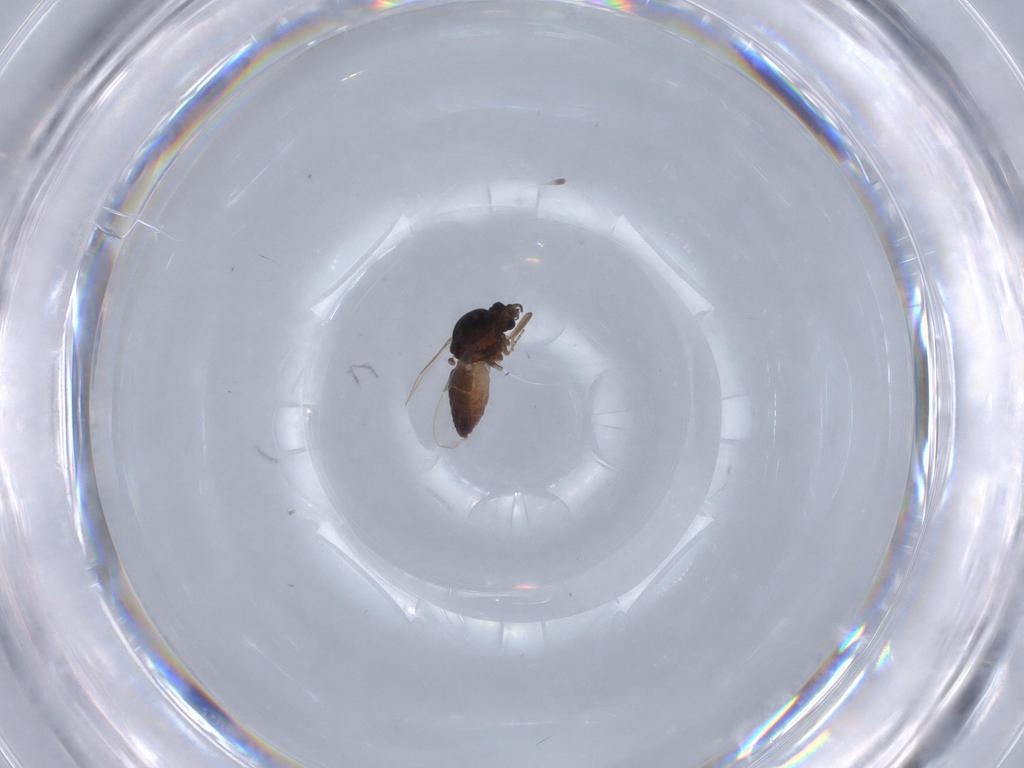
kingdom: Animalia
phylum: Arthropoda
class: Insecta
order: Diptera
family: Ceratopogonidae
